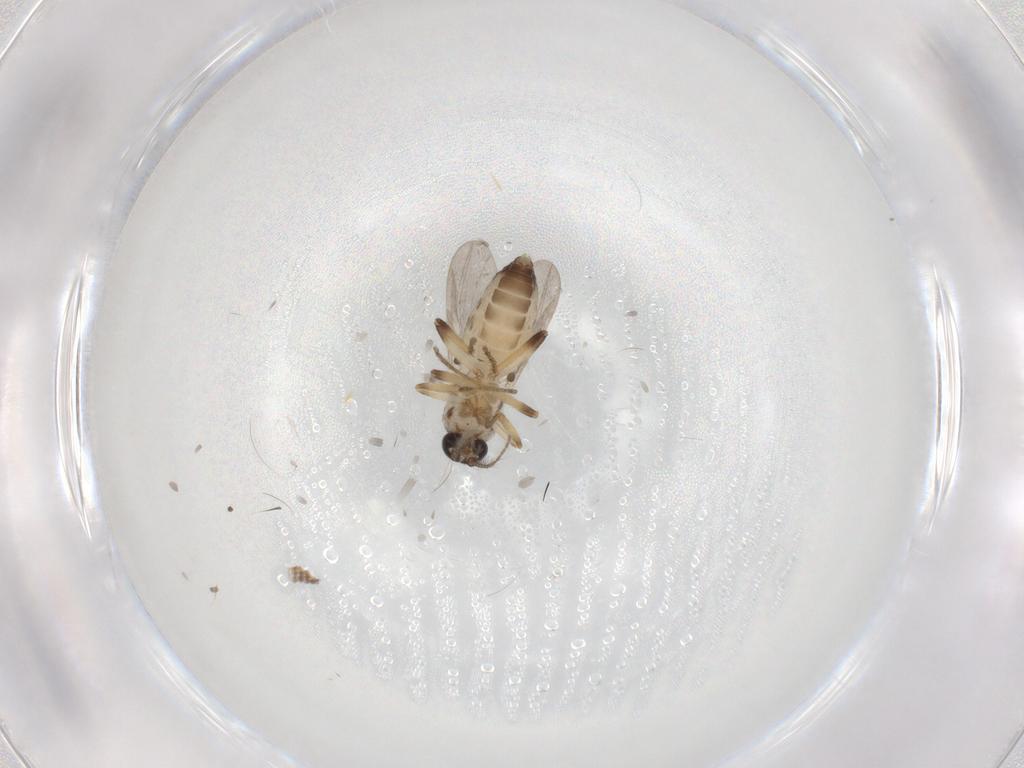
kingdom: Animalia
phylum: Arthropoda
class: Insecta
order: Diptera
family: Ceratopogonidae
